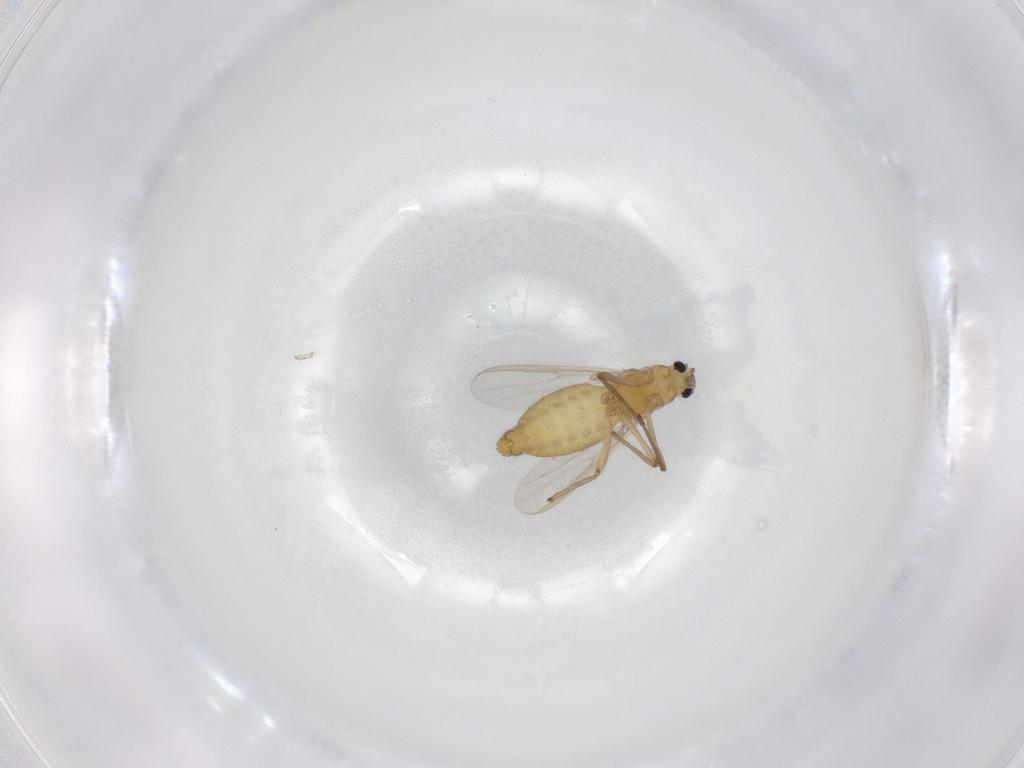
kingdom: Animalia
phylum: Arthropoda
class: Insecta
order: Diptera
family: Chironomidae
